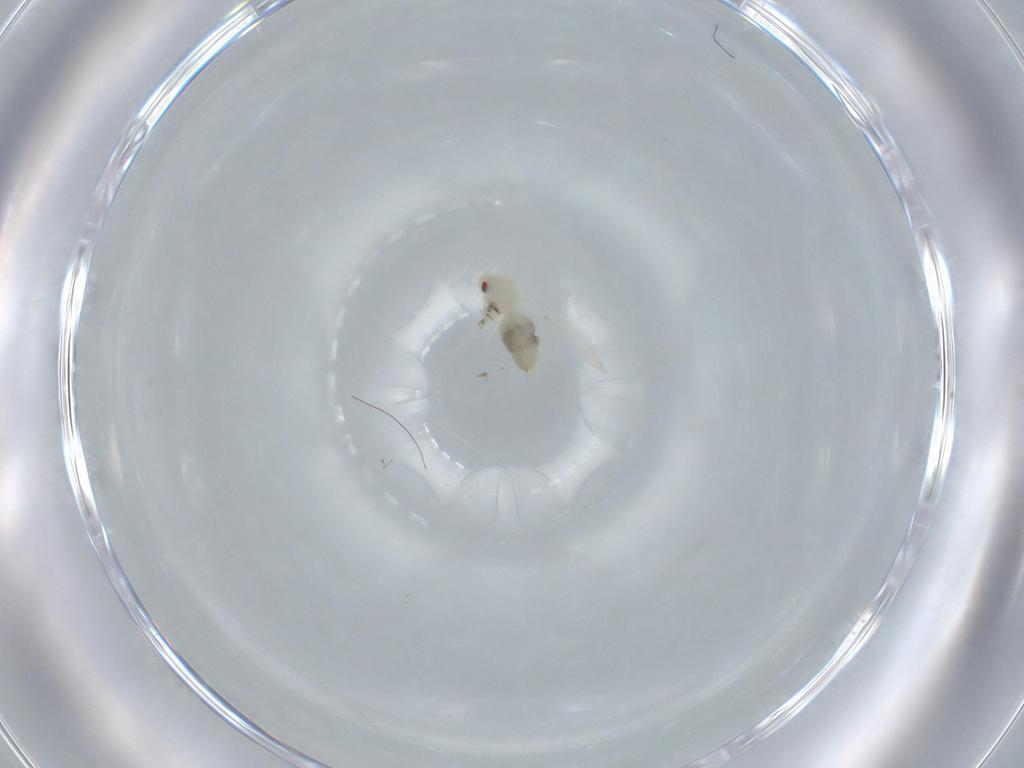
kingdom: Animalia
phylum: Arthropoda
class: Insecta
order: Hemiptera
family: Aleyrodidae
